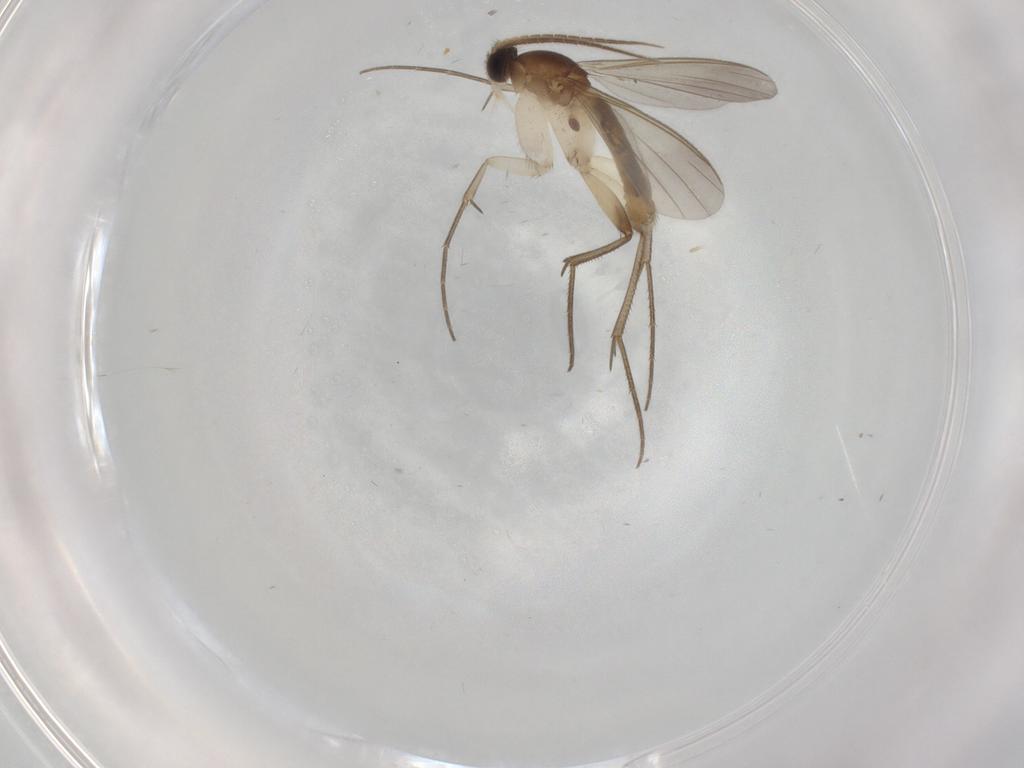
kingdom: Animalia
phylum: Arthropoda
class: Insecta
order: Diptera
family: Mycetophilidae
